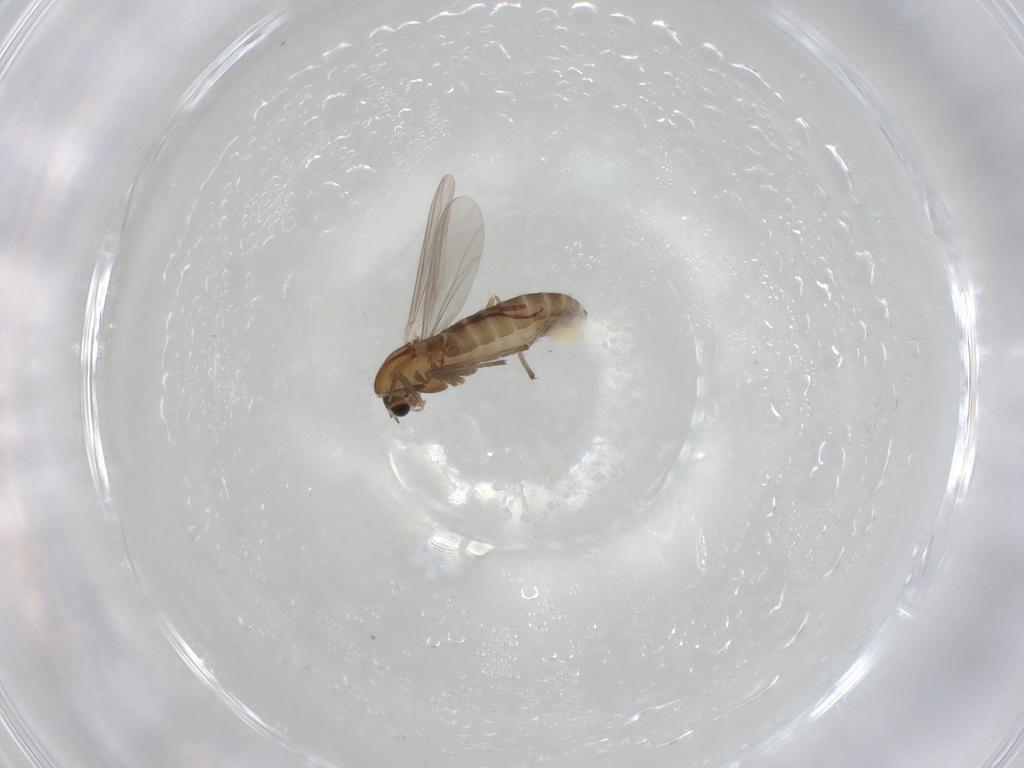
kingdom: Animalia
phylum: Arthropoda
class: Insecta
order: Diptera
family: Chironomidae
